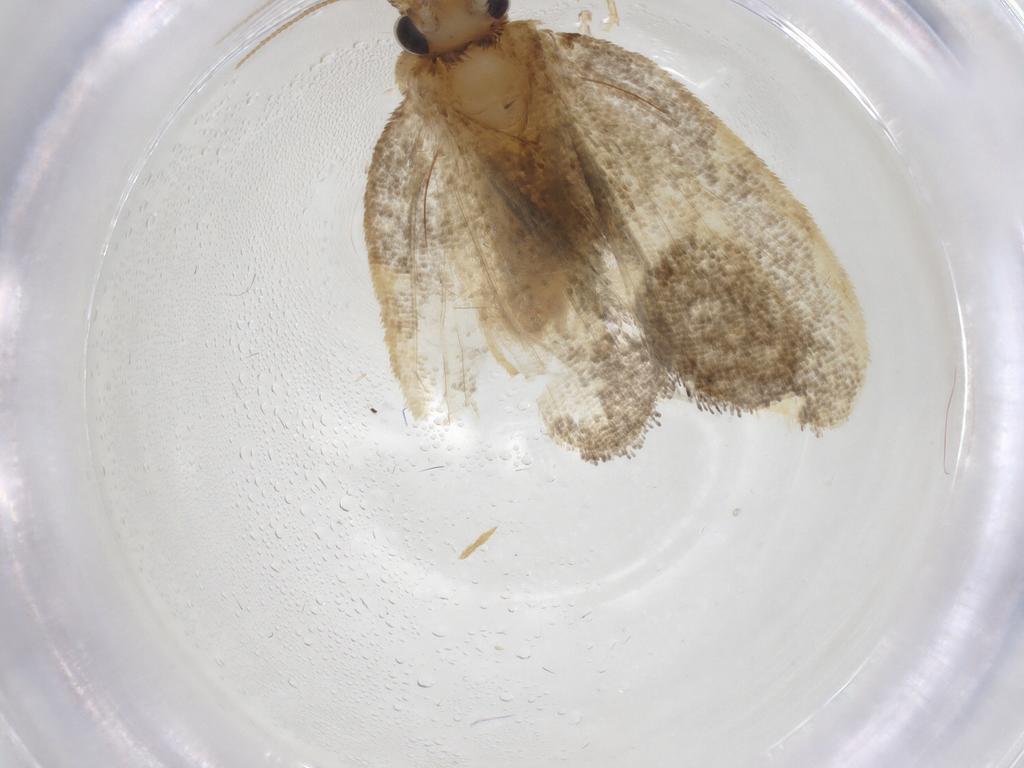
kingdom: Animalia
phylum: Arthropoda
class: Insecta
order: Lepidoptera
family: Psychidae
